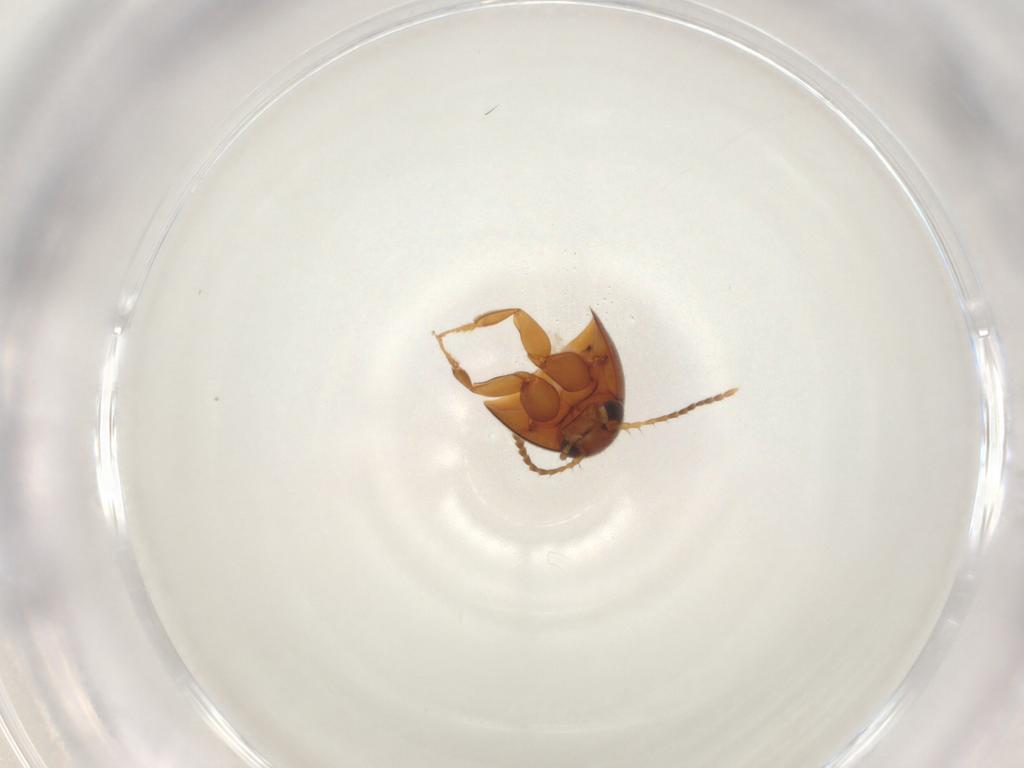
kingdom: Animalia
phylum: Arthropoda
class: Insecta
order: Coleoptera
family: Staphylinidae
